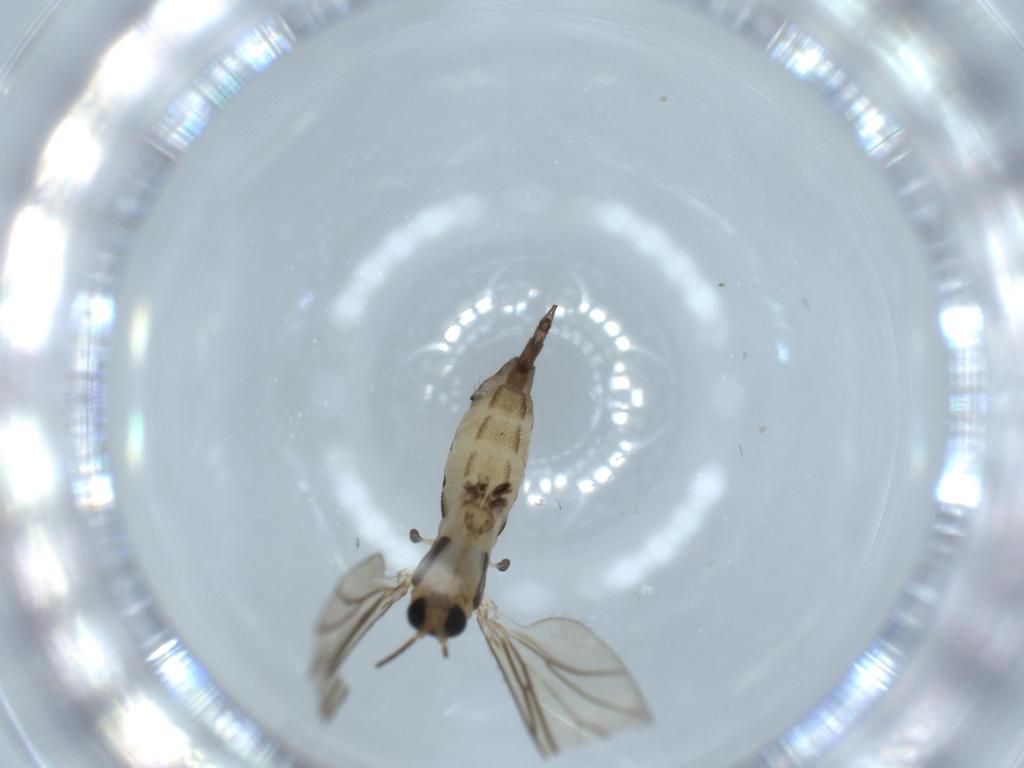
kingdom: Animalia
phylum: Arthropoda
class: Insecta
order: Diptera
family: Sciaridae
